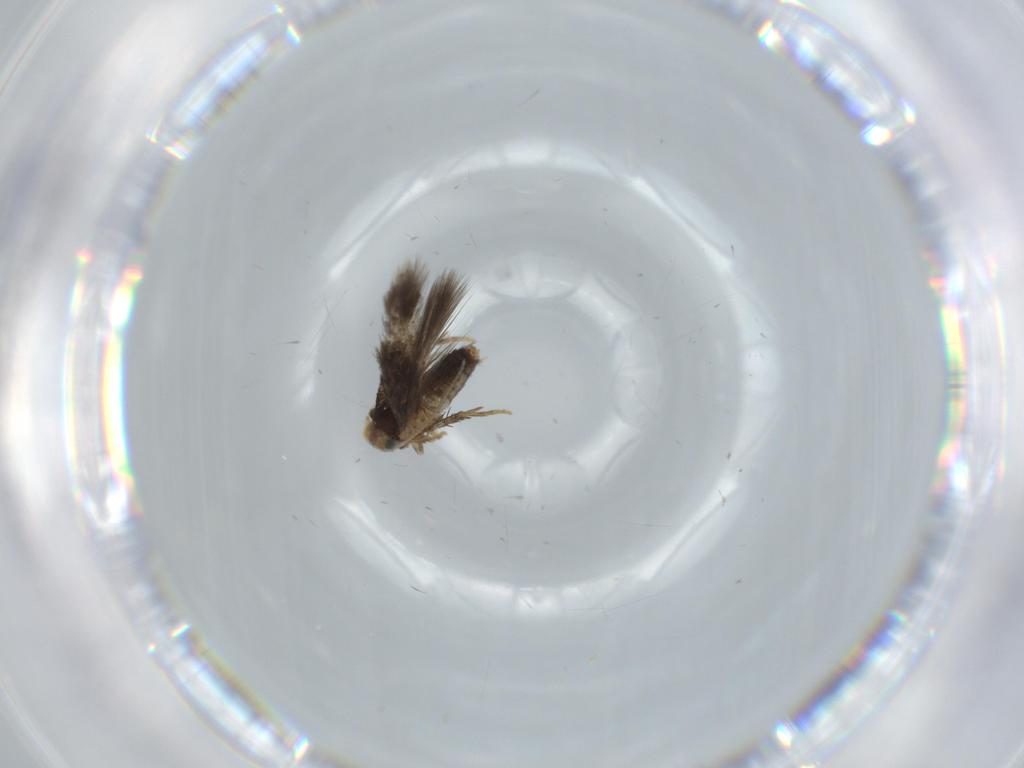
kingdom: Animalia
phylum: Arthropoda
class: Insecta
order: Lepidoptera
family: Nepticulidae
